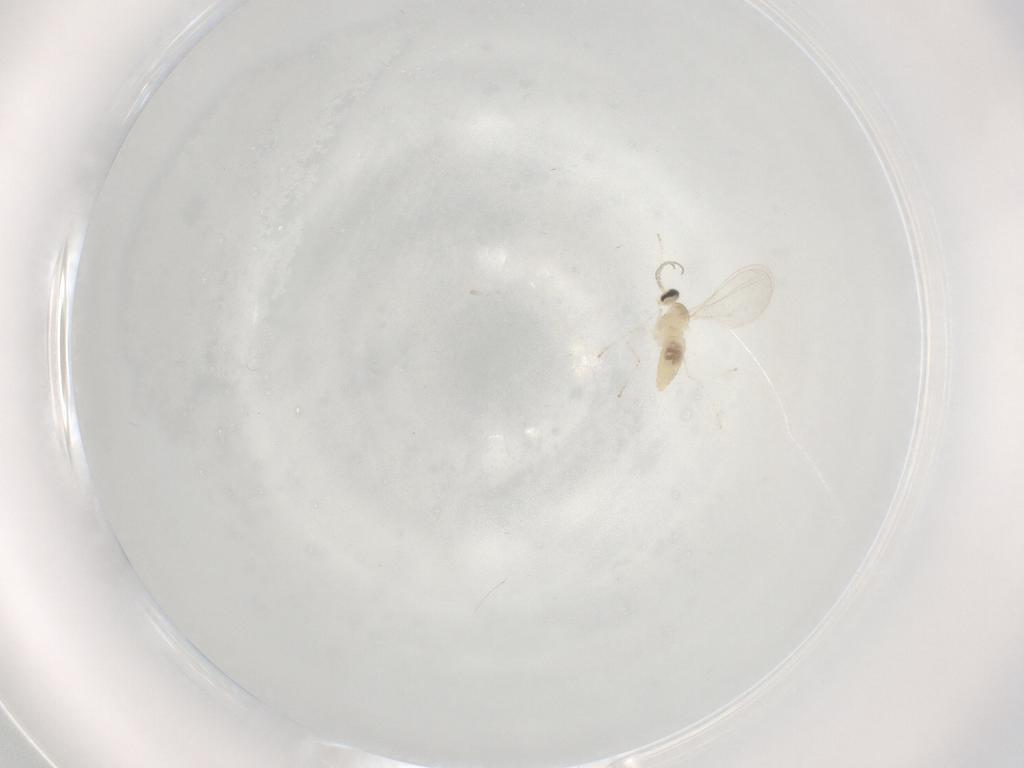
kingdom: Animalia
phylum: Arthropoda
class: Insecta
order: Diptera
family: Cecidomyiidae
